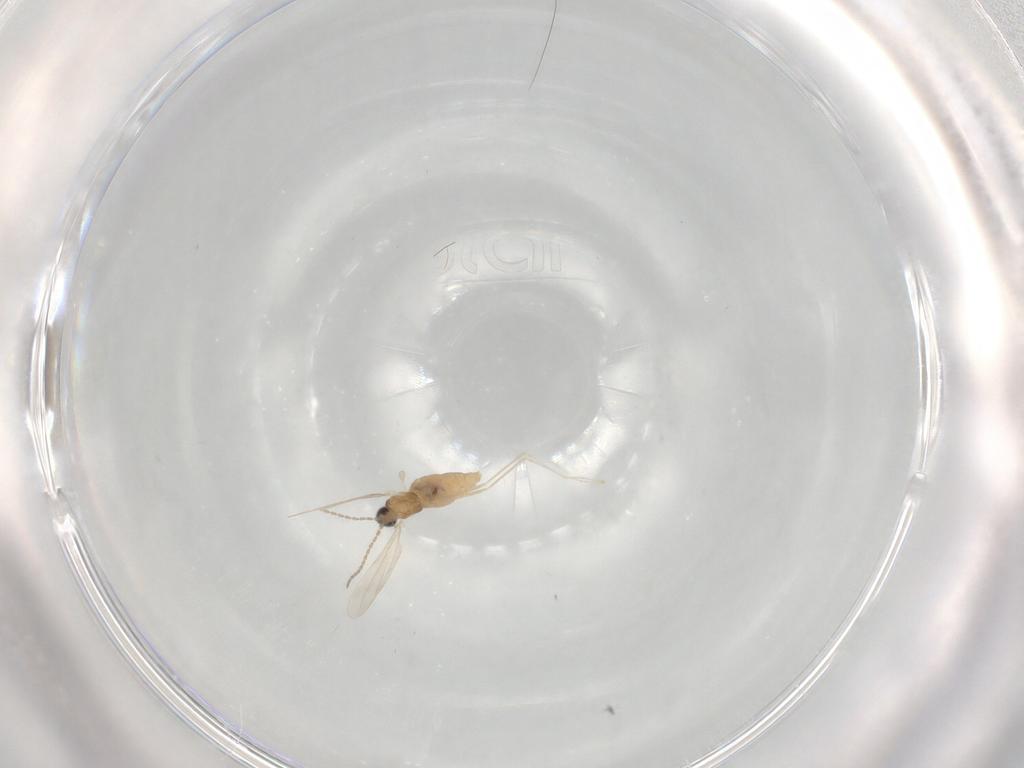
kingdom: Animalia
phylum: Arthropoda
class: Insecta
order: Diptera
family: Cecidomyiidae
